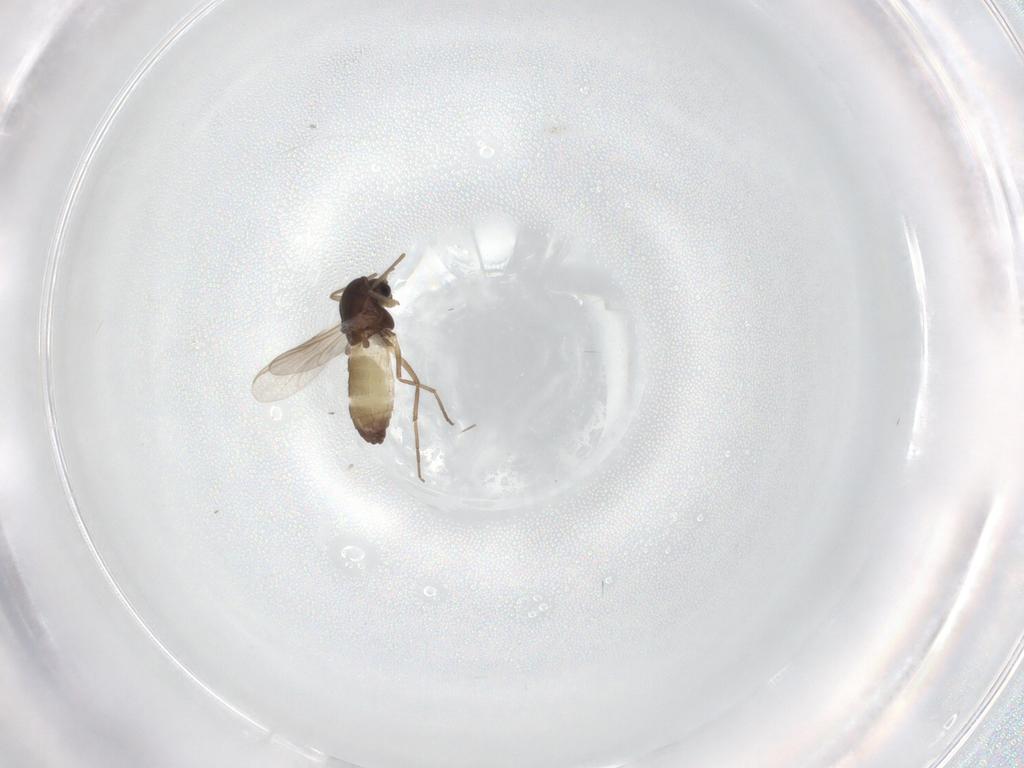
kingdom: Animalia
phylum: Arthropoda
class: Insecta
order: Diptera
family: Chironomidae
